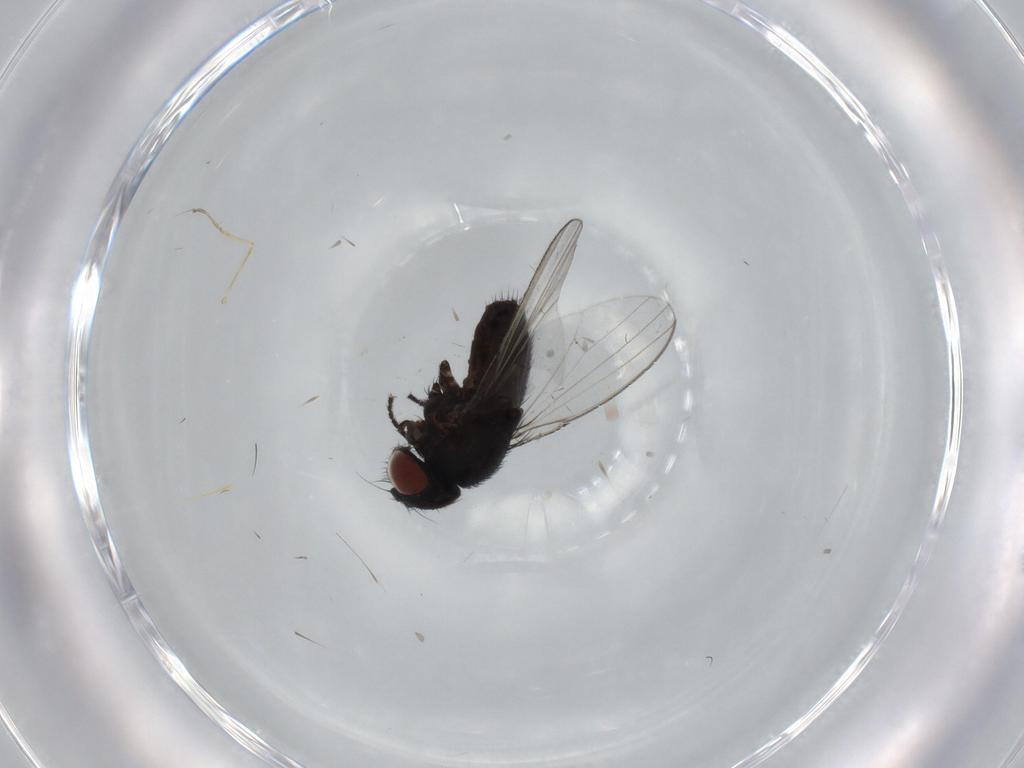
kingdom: Animalia
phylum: Arthropoda
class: Insecta
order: Diptera
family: Milichiidae
